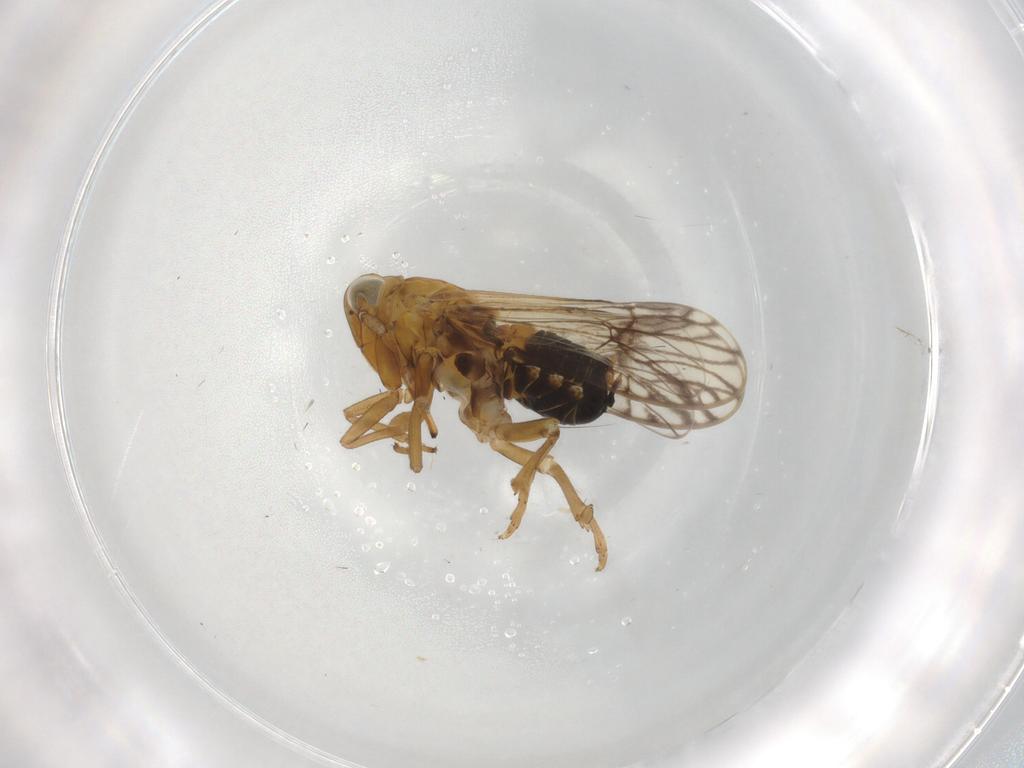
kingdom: Animalia
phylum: Arthropoda
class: Insecta
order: Hemiptera
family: Delphacidae
